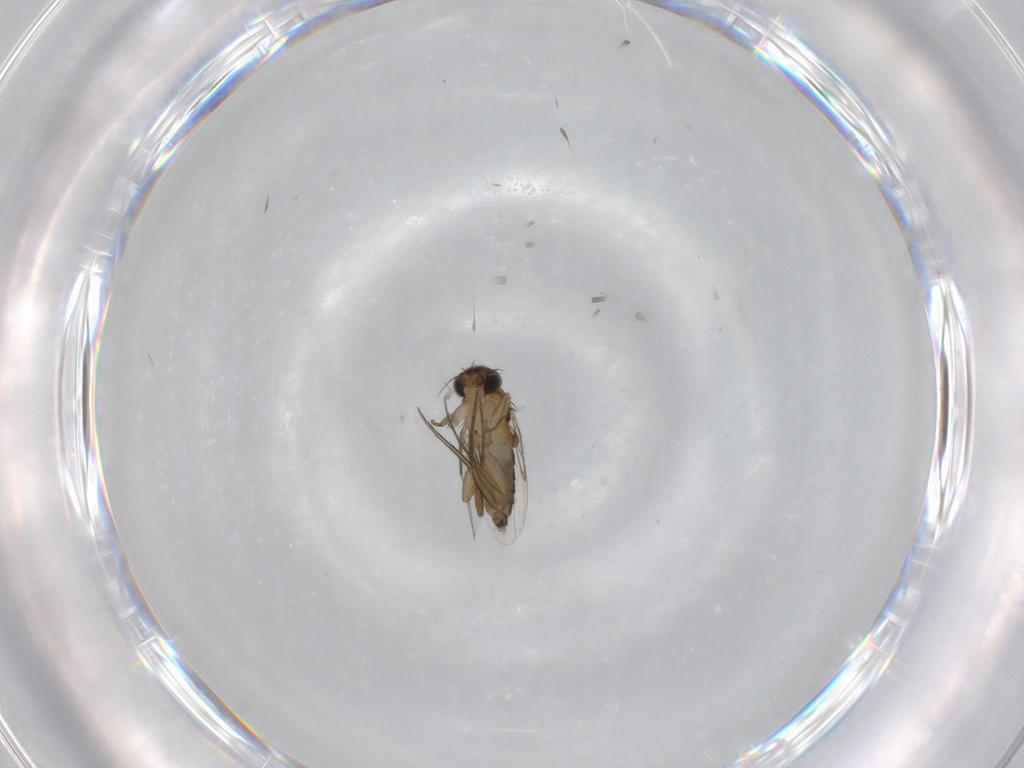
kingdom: Animalia
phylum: Arthropoda
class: Insecta
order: Diptera
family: Phoridae
